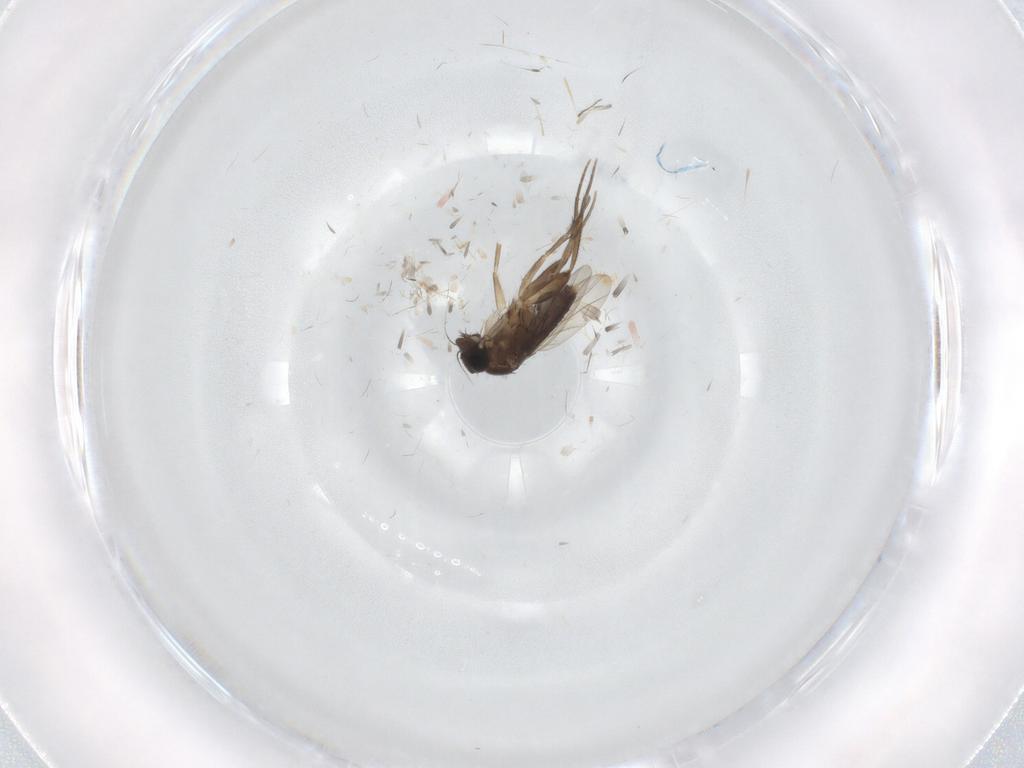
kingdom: Animalia
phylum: Arthropoda
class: Insecta
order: Diptera
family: Phoridae
